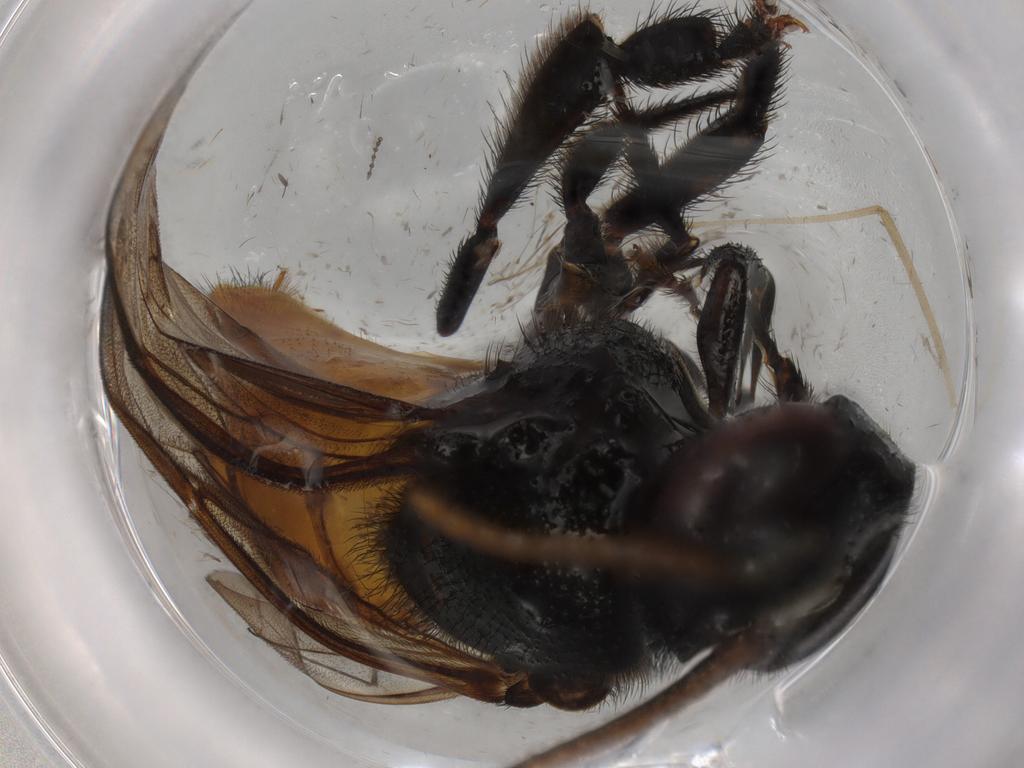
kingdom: Animalia
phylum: Arthropoda
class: Insecta
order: Hymenoptera
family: Apidae
